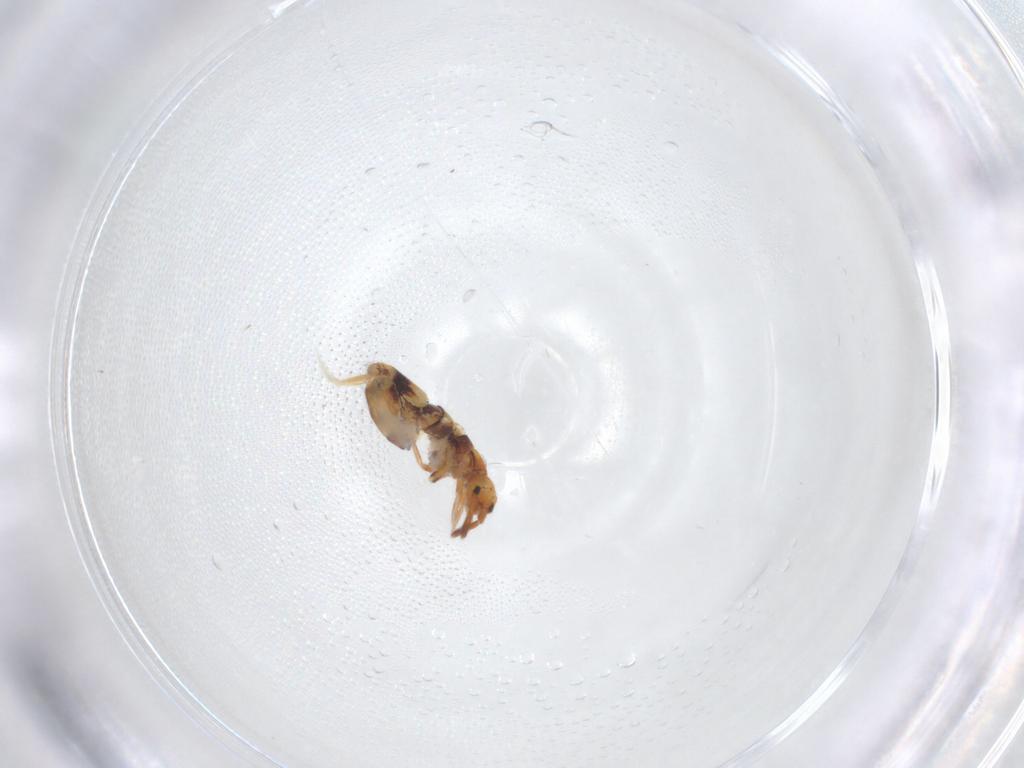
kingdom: Animalia
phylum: Arthropoda
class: Collembola
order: Entomobryomorpha
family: Entomobryidae
